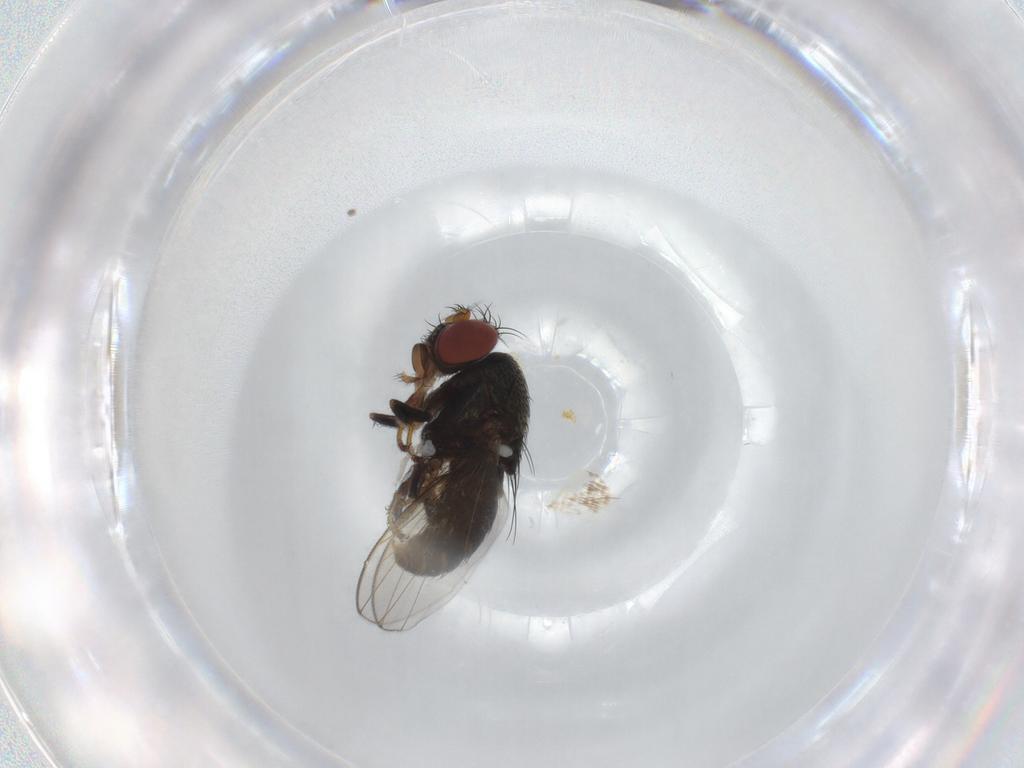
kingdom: Animalia
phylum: Arthropoda
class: Insecta
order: Diptera
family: Ephydridae
